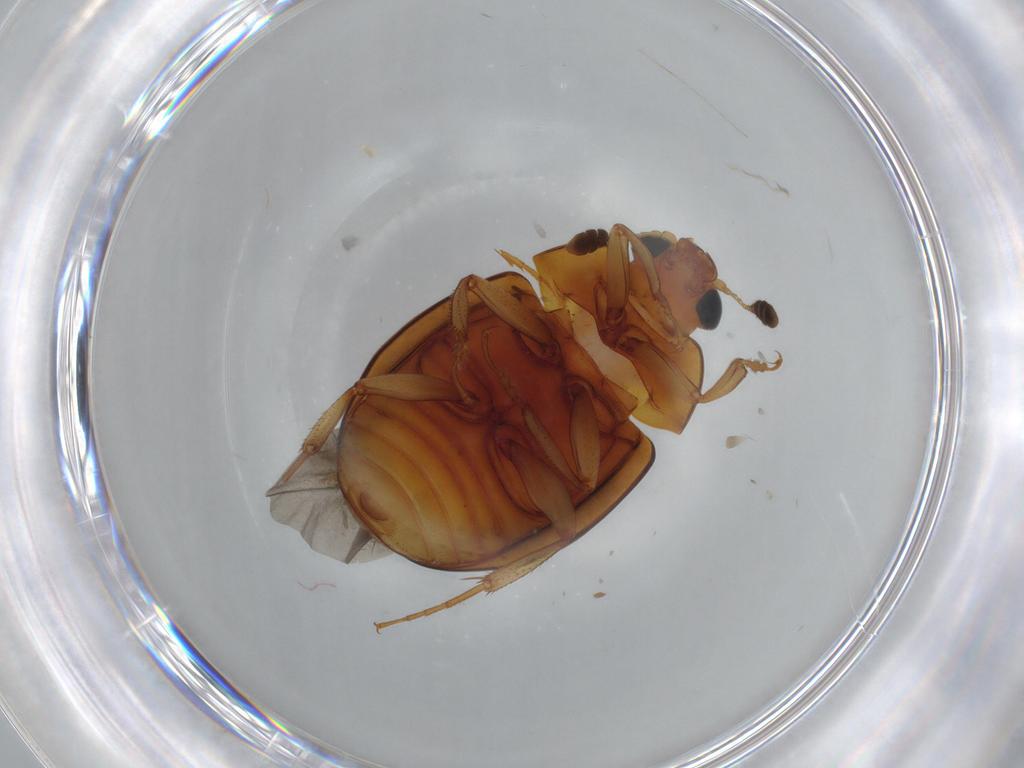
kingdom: Animalia
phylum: Arthropoda
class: Insecta
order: Coleoptera
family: Nitidulidae
